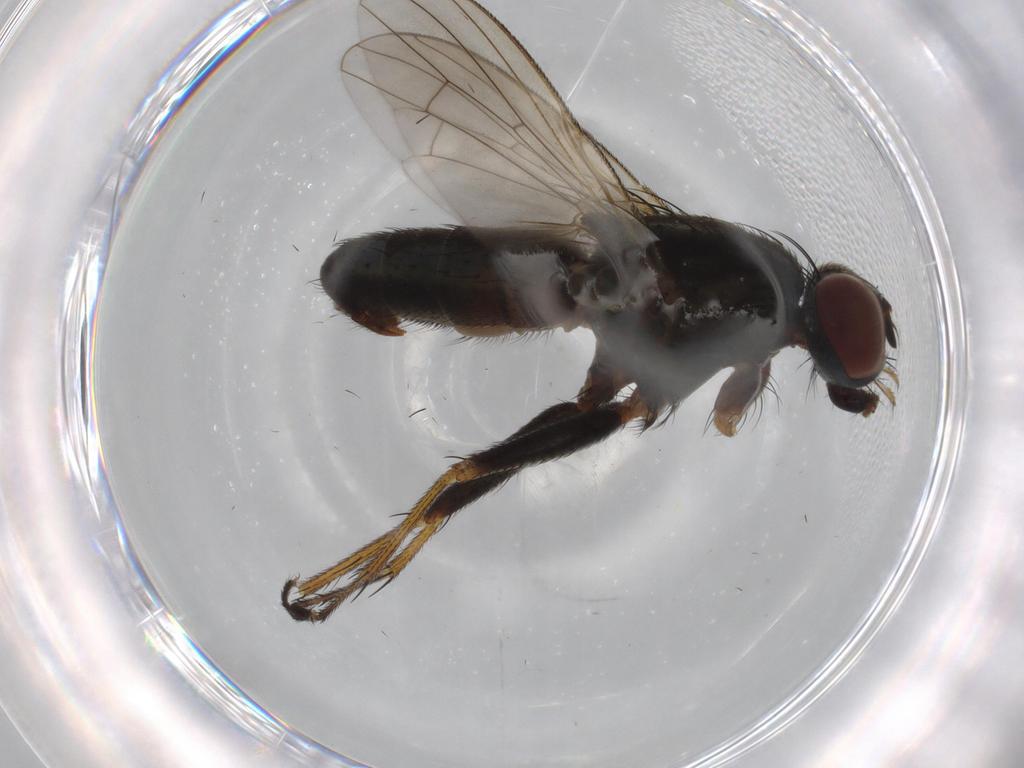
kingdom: Animalia
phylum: Arthropoda
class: Insecta
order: Diptera
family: Muscidae
